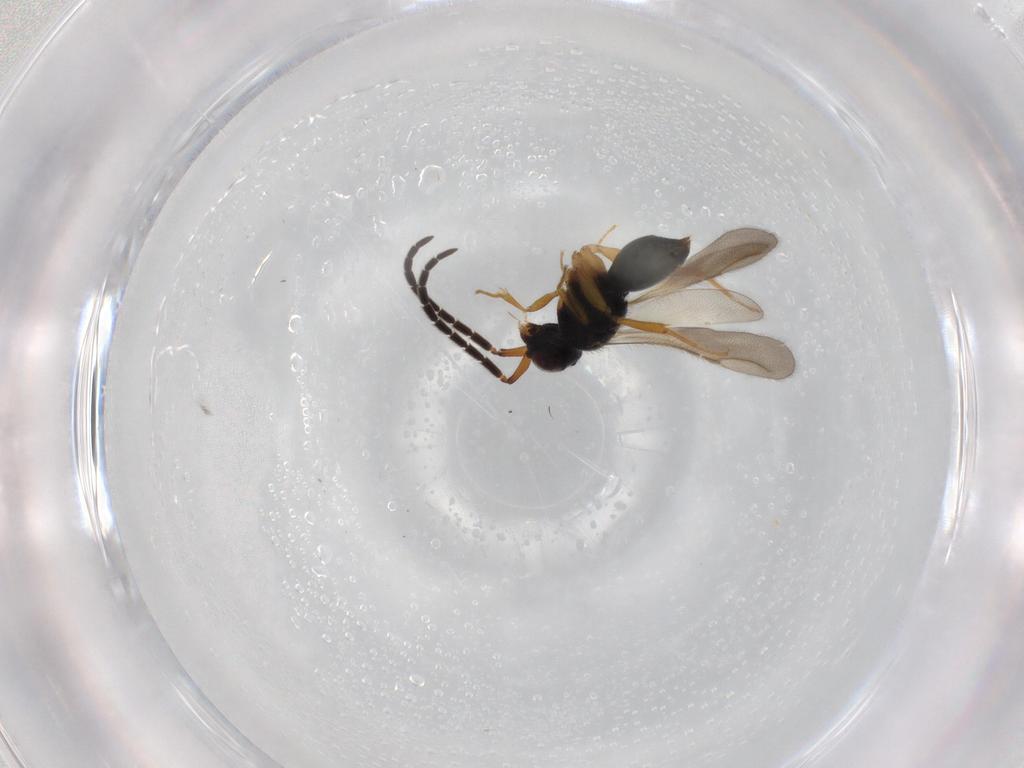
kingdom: Animalia
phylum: Arthropoda
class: Insecta
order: Hymenoptera
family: Ceraphronidae
